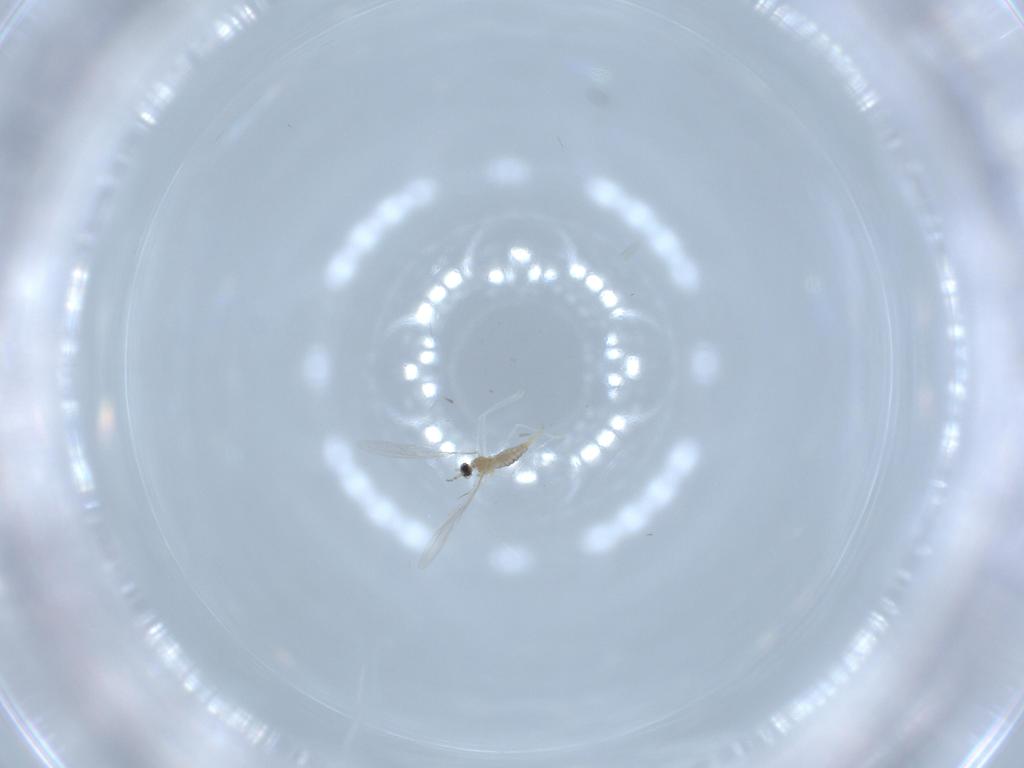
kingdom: Animalia
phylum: Arthropoda
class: Insecta
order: Diptera
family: Cecidomyiidae
